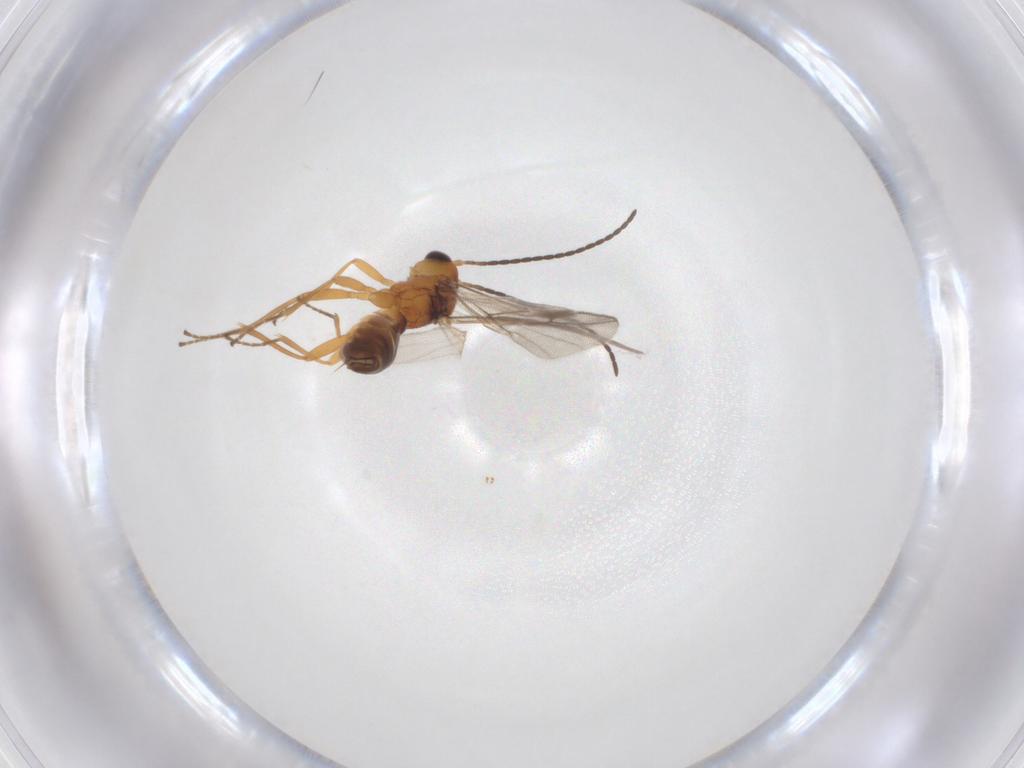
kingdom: Animalia
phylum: Arthropoda
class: Insecta
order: Hymenoptera
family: Braconidae
